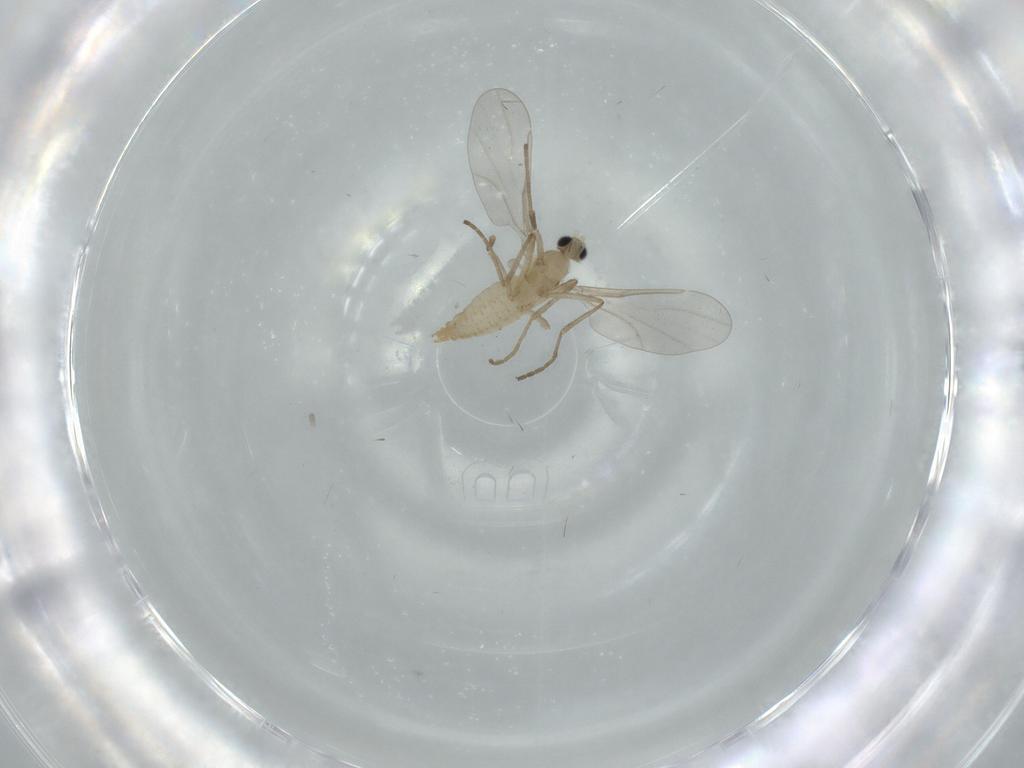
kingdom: Animalia
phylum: Arthropoda
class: Insecta
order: Diptera
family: Cecidomyiidae
